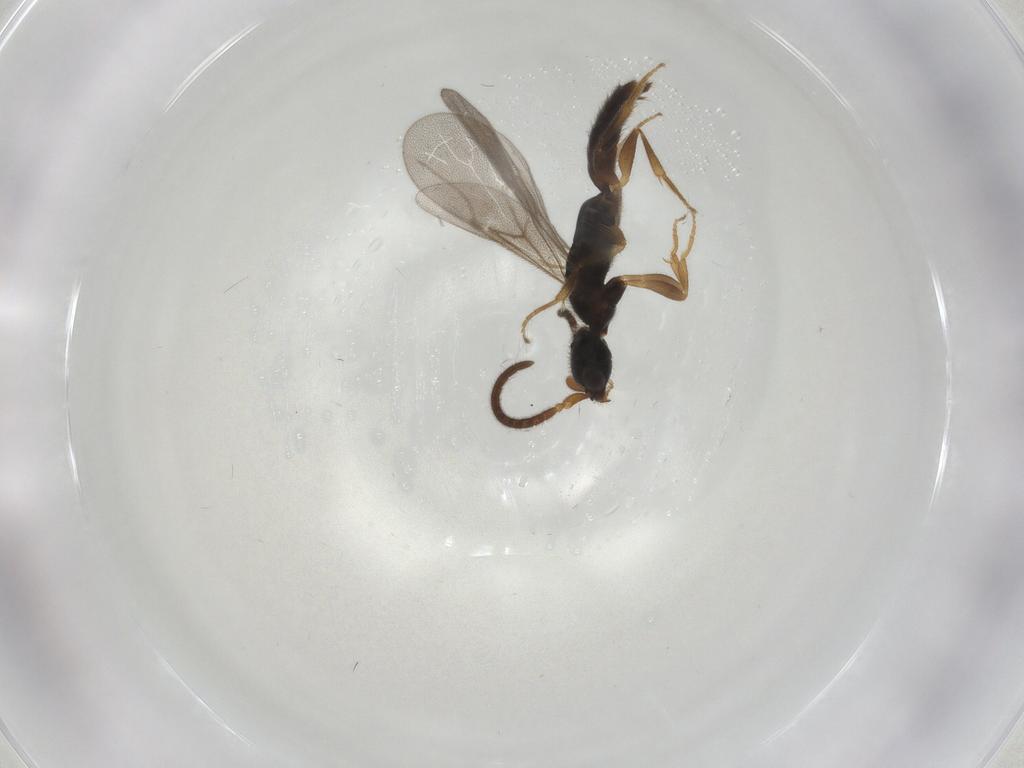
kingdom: Animalia
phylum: Arthropoda
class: Insecta
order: Hymenoptera
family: Bethylidae
